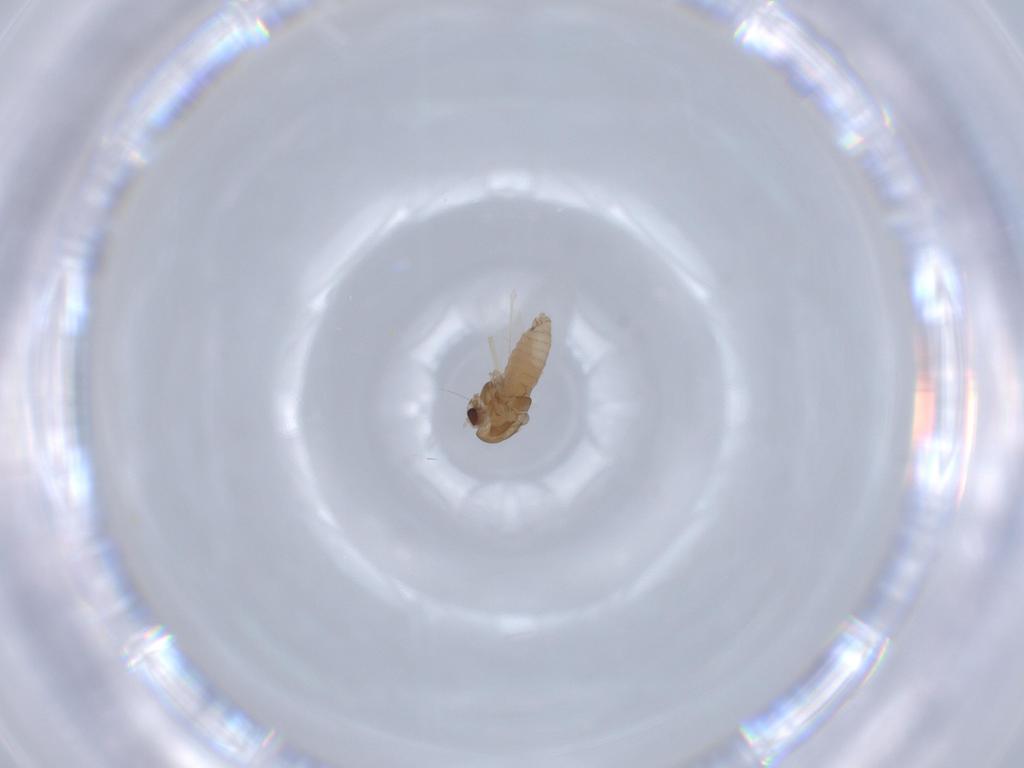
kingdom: Animalia
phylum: Arthropoda
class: Insecta
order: Diptera
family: Chironomidae
